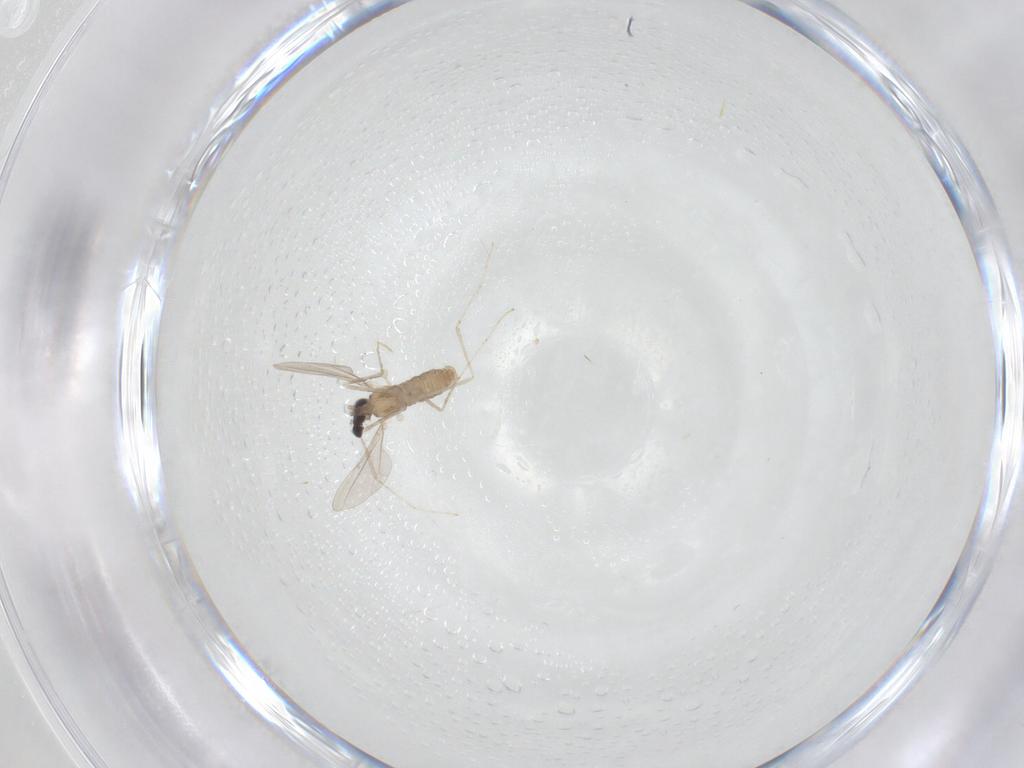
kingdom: Animalia
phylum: Arthropoda
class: Insecta
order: Diptera
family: Cecidomyiidae
